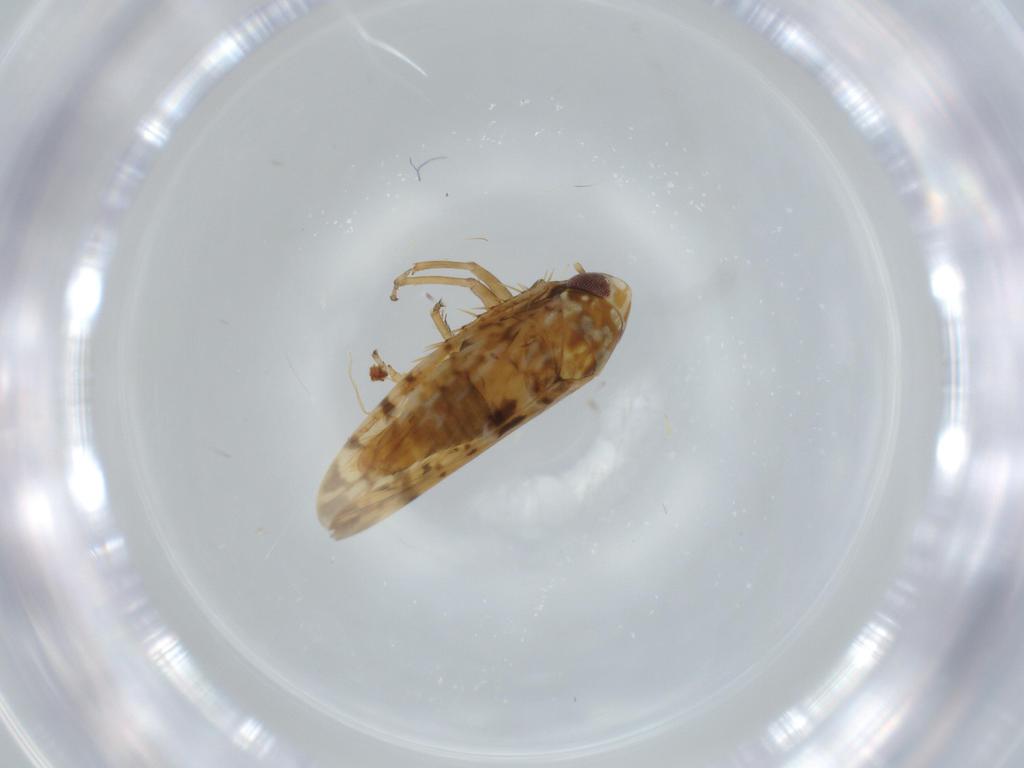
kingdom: Animalia
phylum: Arthropoda
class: Insecta
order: Hemiptera
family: Cicadellidae
